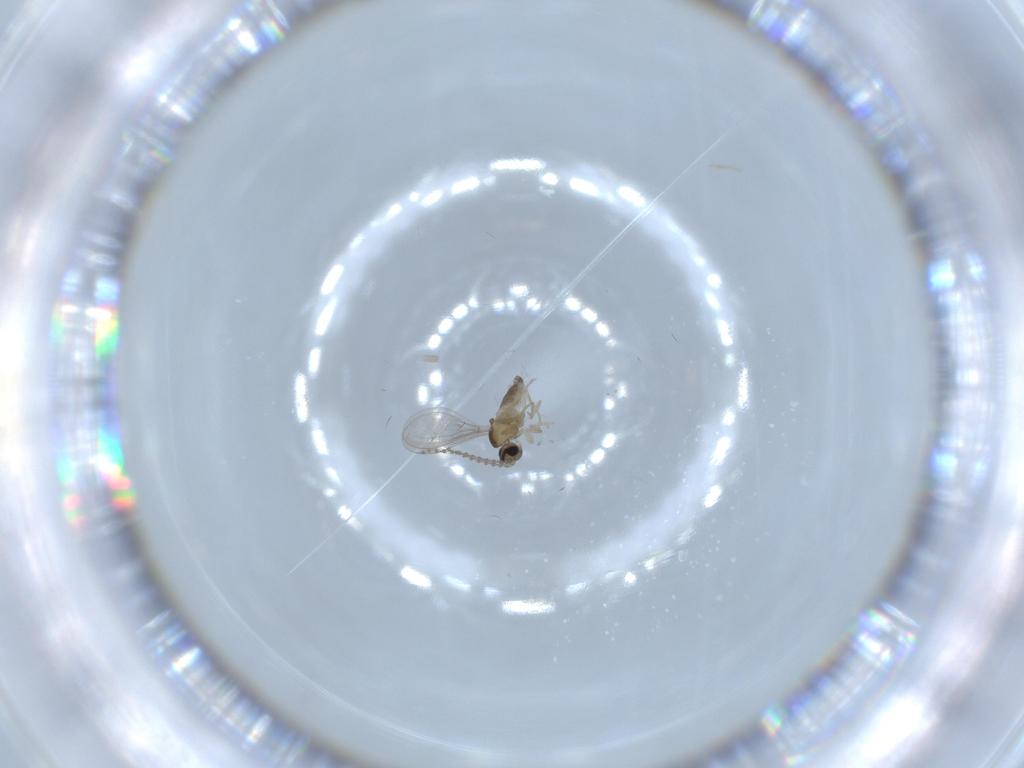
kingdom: Animalia
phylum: Arthropoda
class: Insecta
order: Diptera
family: Cecidomyiidae
